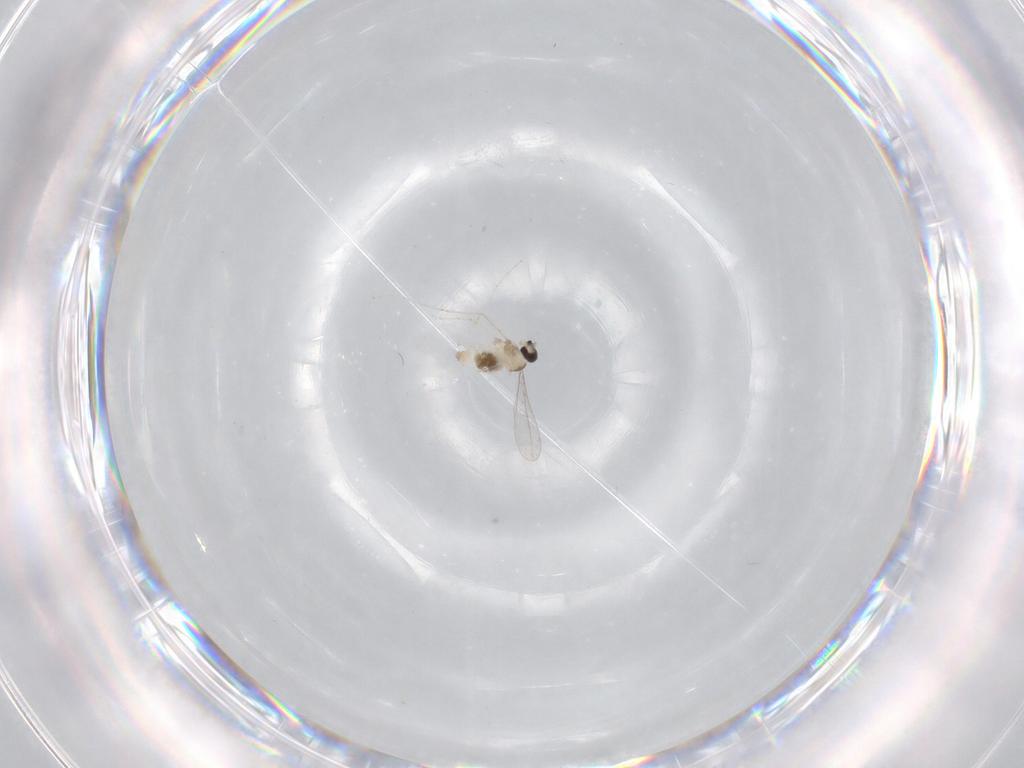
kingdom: Animalia
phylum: Arthropoda
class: Insecta
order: Diptera
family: Cecidomyiidae
